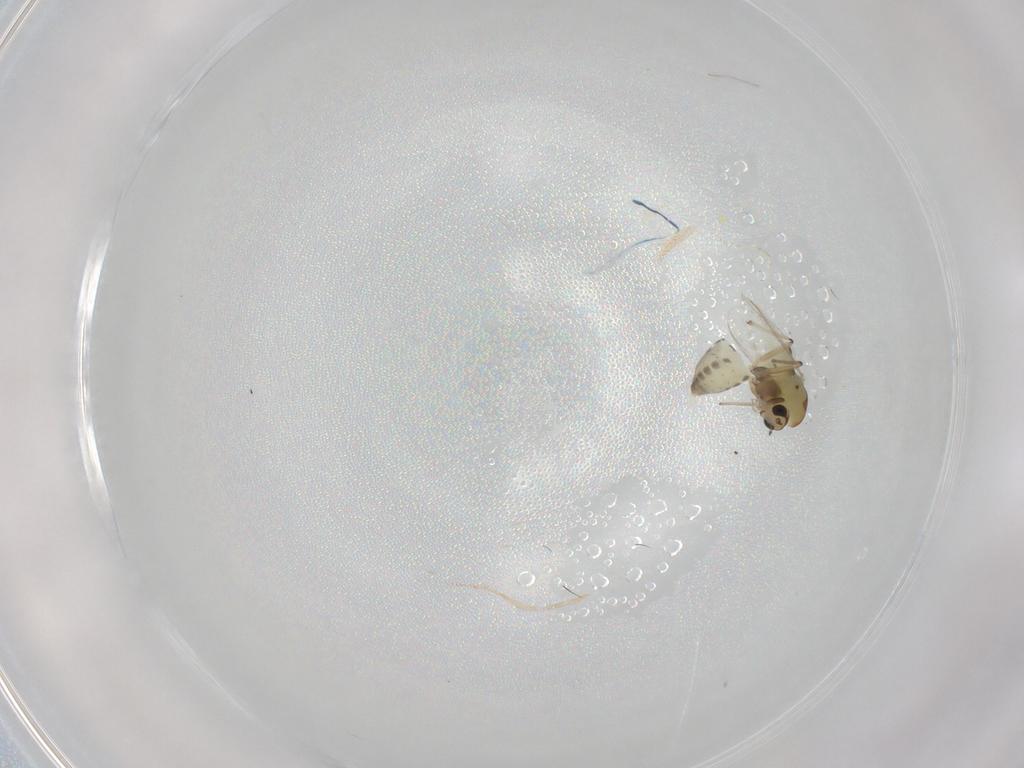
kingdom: Animalia
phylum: Arthropoda
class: Insecta
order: Diptera
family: Chironomidae
